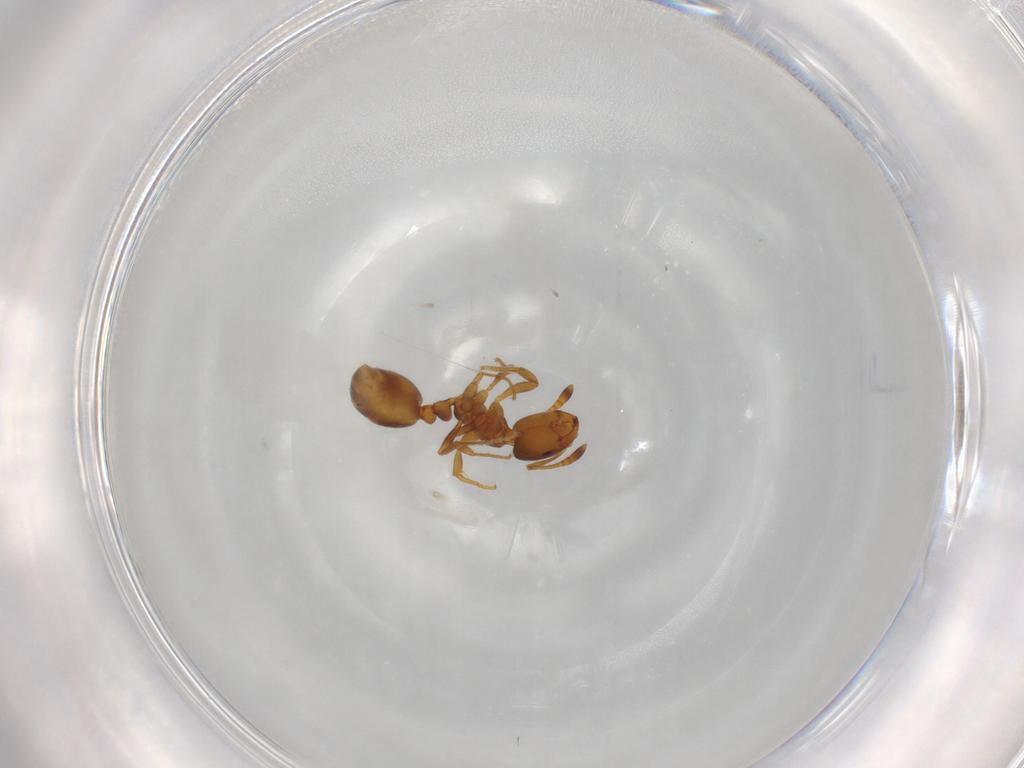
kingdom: Animalia
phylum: Arthropoda
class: Insecta
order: Hymenoptera
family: Formicidae
